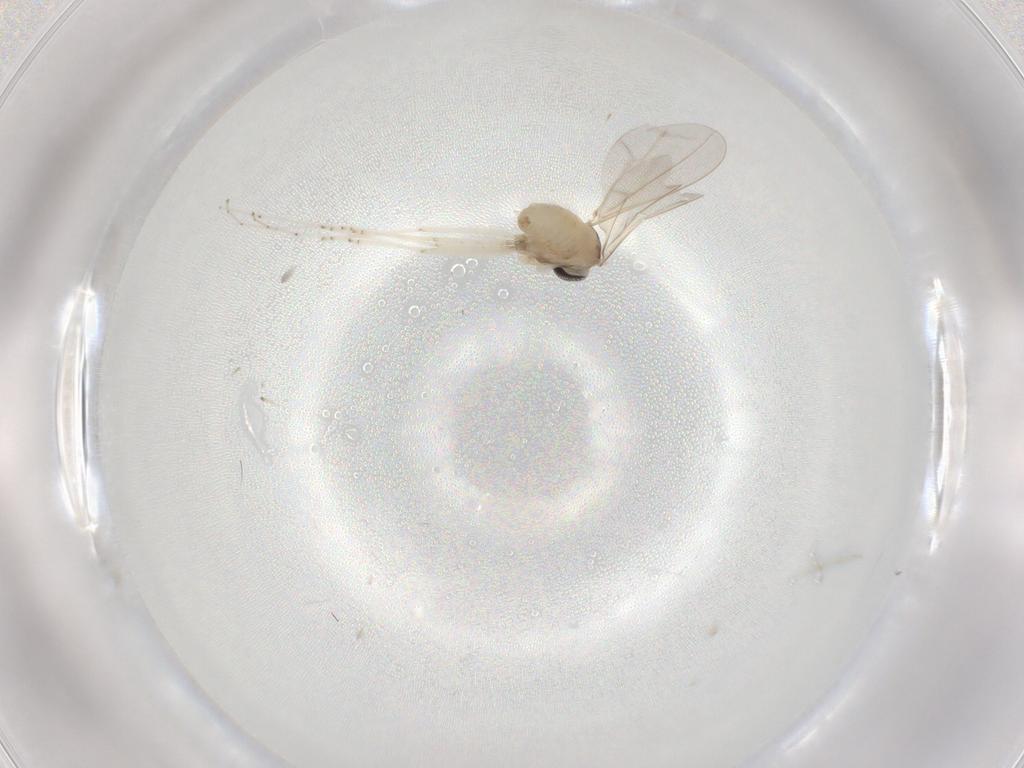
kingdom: Animalia
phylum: Arthropoda
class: Insecta
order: Diptera
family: Cecidomyiidae
